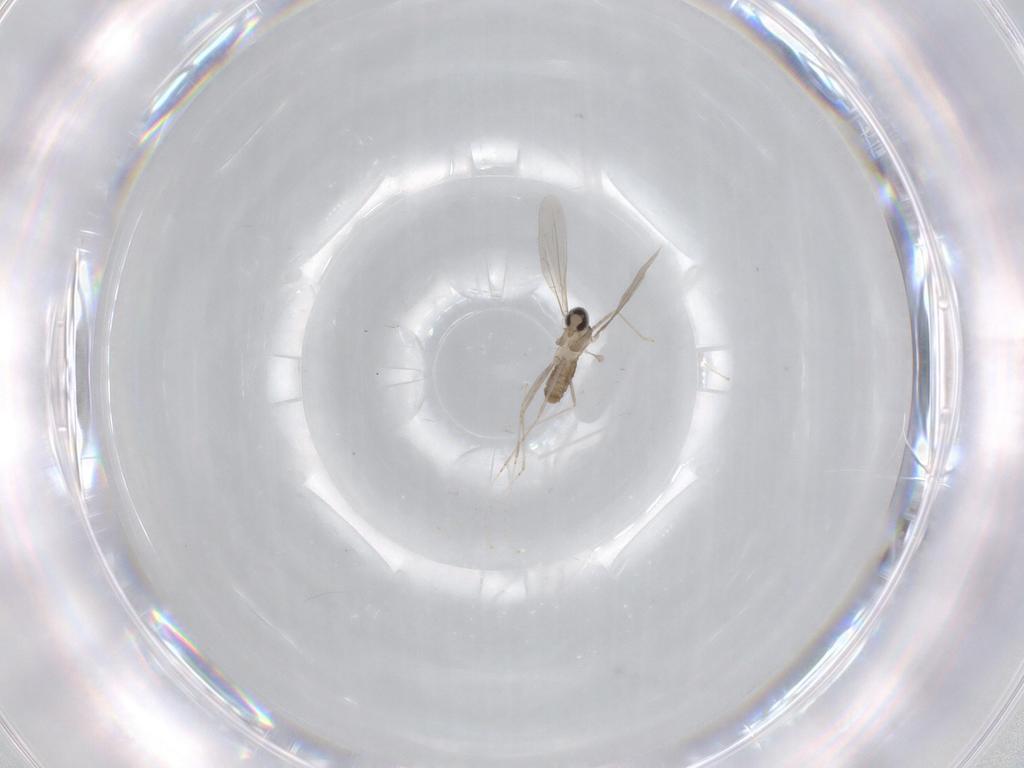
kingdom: Animalia
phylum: Arthropoda
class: Insecta
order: Diptera
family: Cecidomyiidae
